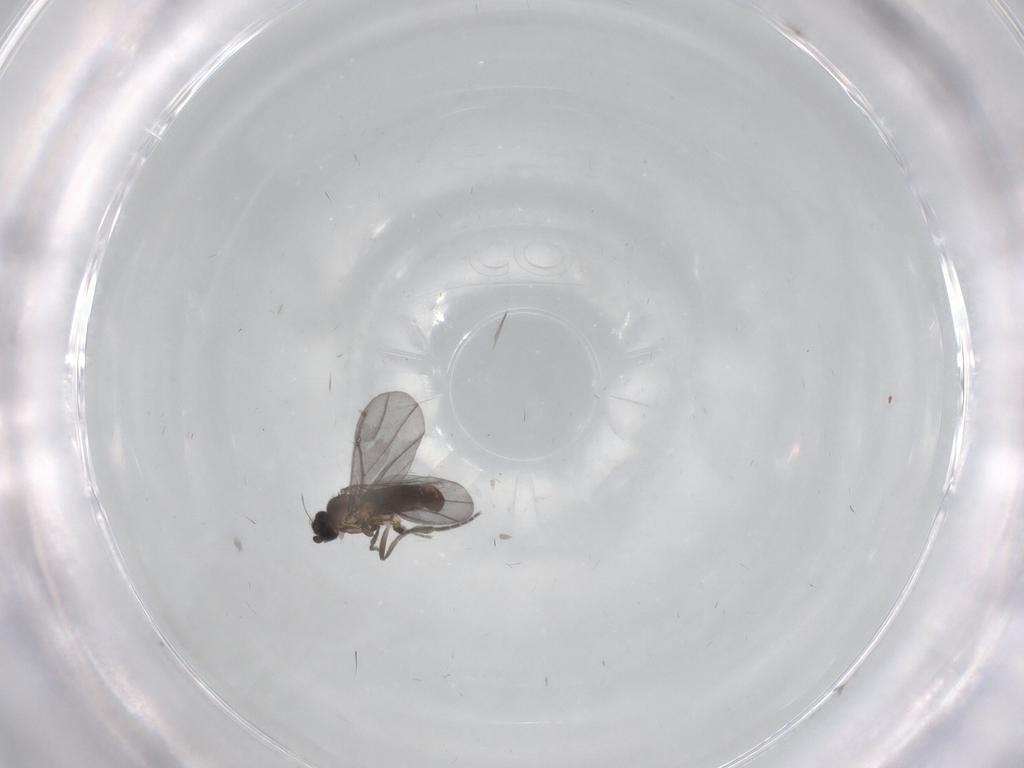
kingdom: Animalia
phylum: Arthropoda
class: Insecta
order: Diptera
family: Phoridae
